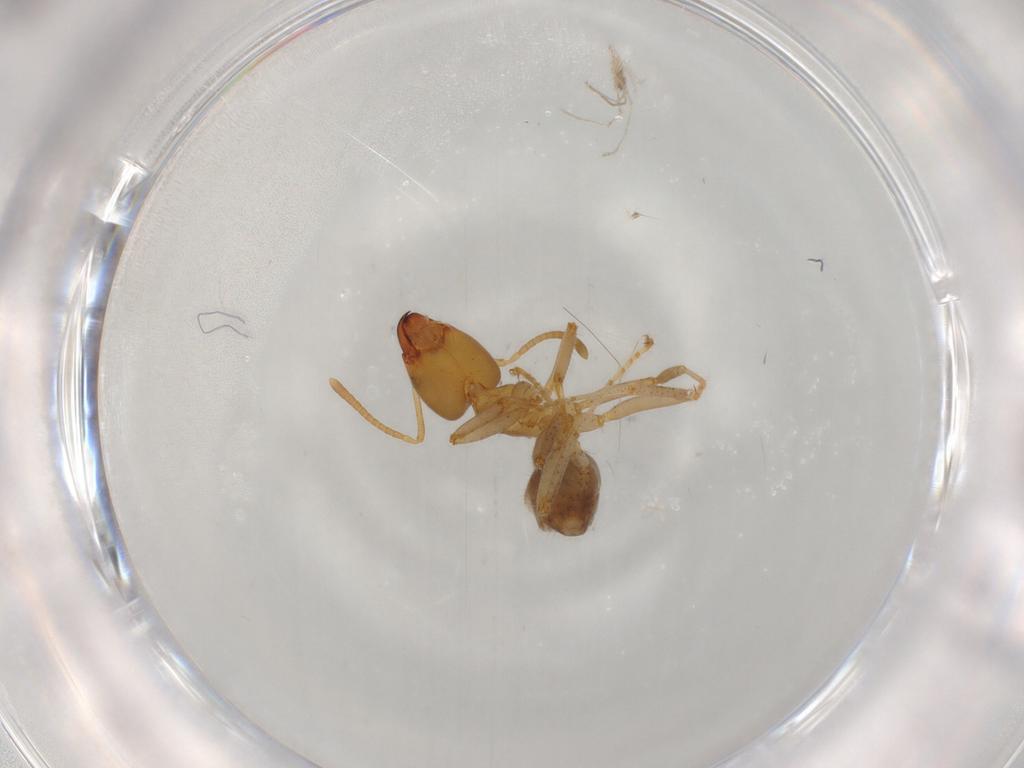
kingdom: Animalia
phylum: Arthropoda
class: Insecta
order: Hymenoptera
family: Formicidae
